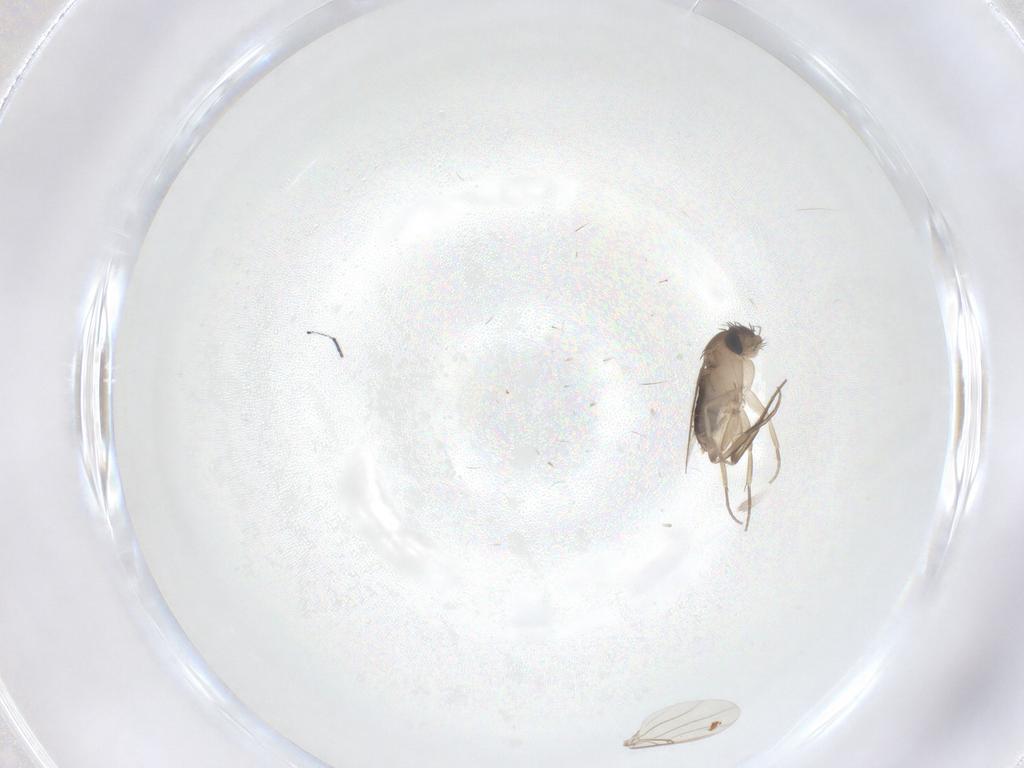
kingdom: Animalia
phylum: Arthropoda
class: Insecta
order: Diptera
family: Phoridae
